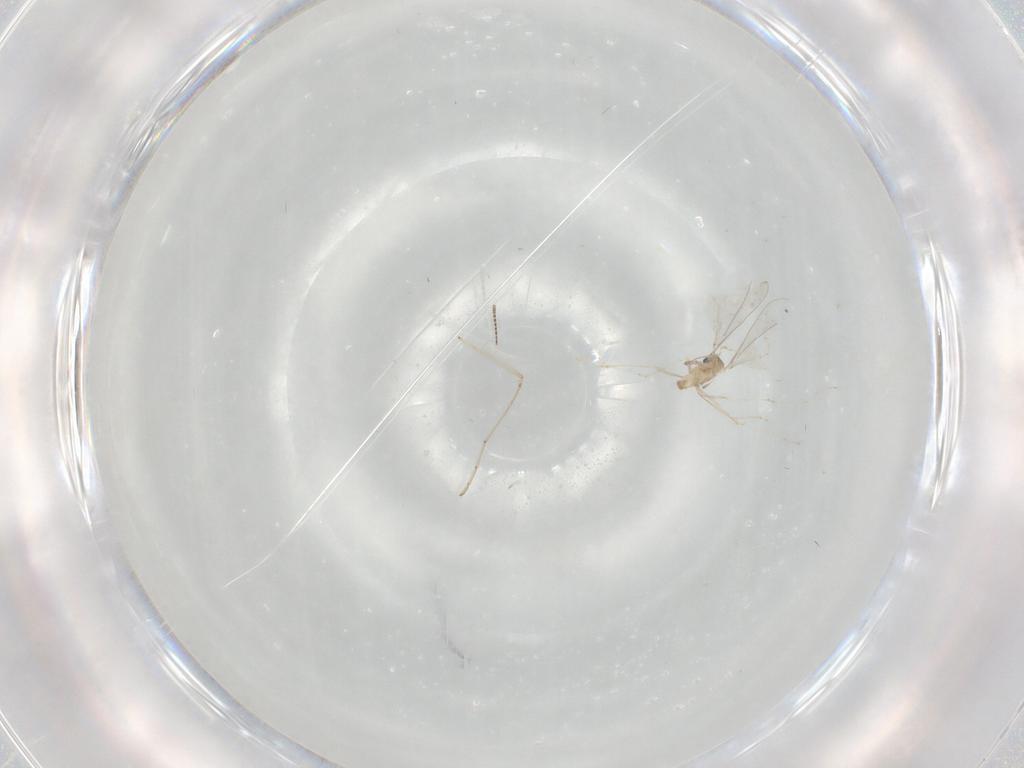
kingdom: Animalia
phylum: Arthropoda
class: Insecta
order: Diptera
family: Cecidomyiidae
